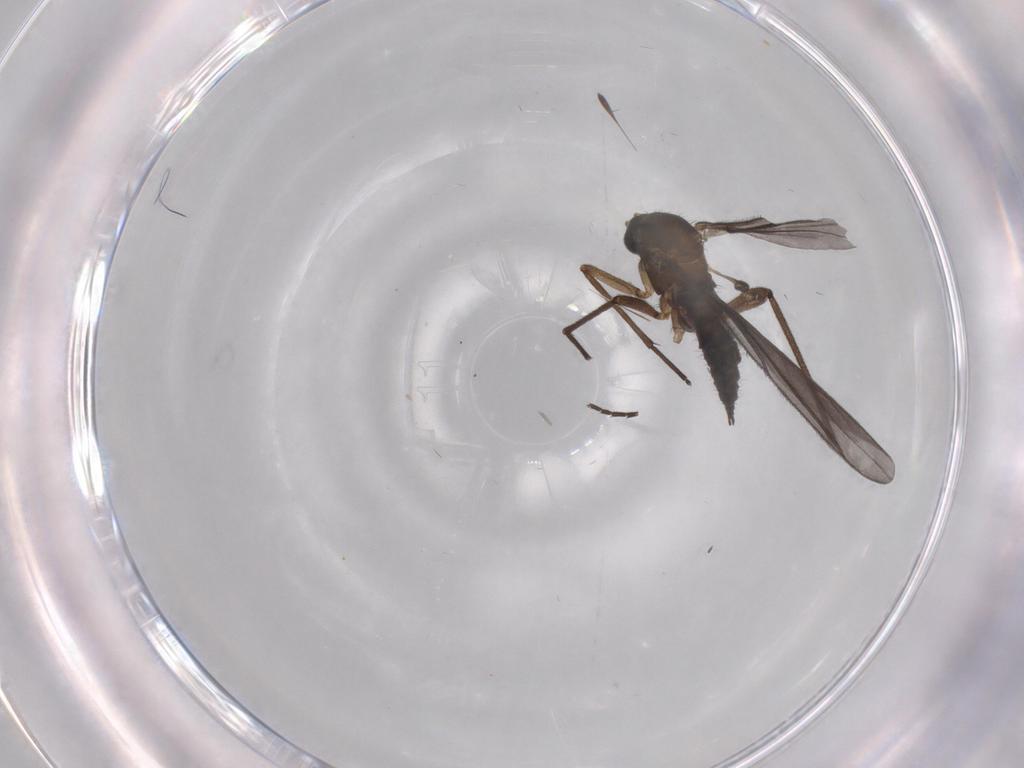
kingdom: Animalia
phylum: Arthropoda
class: Insecta
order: Diptera
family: Sciaridae
